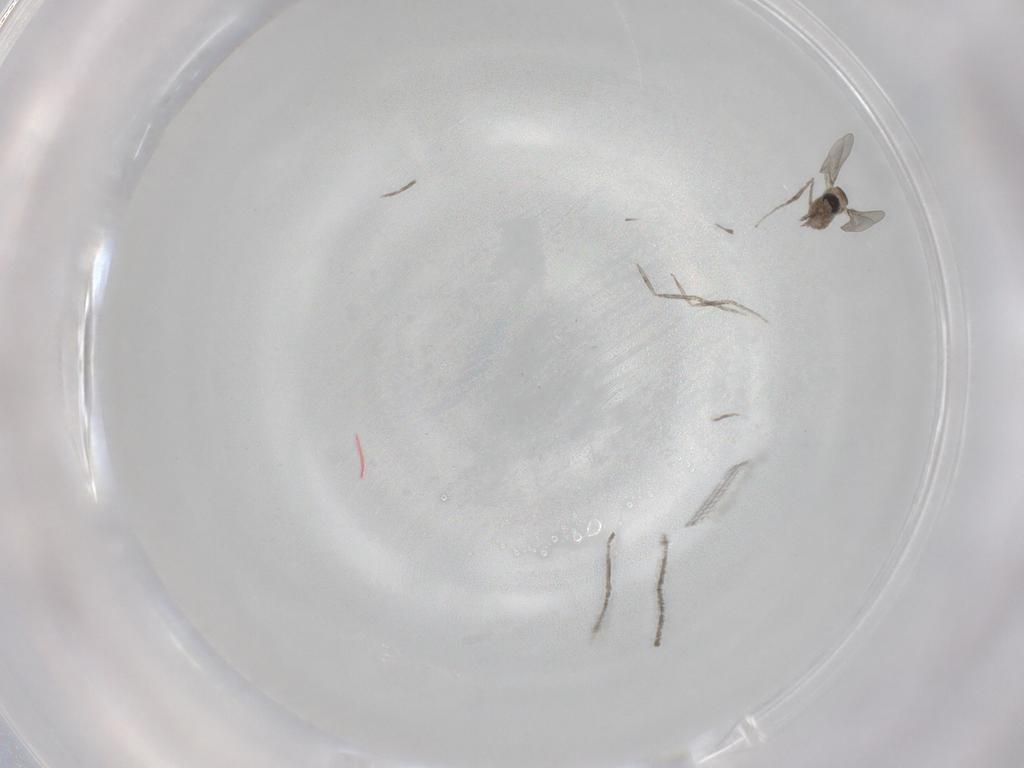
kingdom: Animalia
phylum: Arthropoda
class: Insecta
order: Diptera
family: Cecidomyiidae
